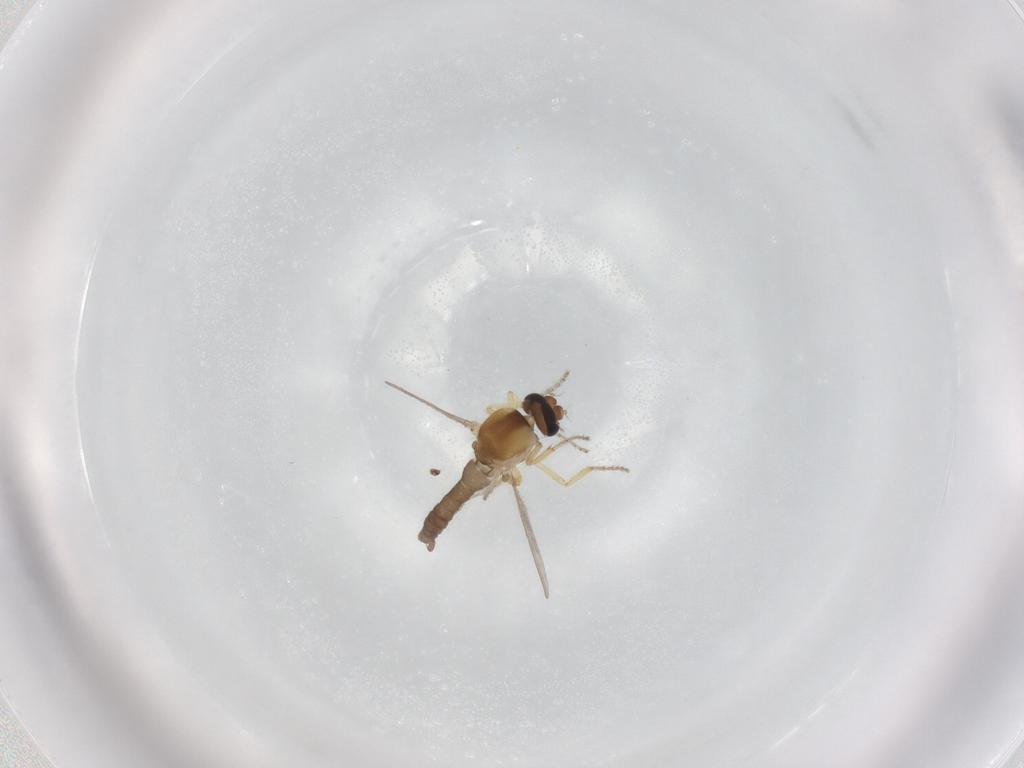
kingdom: Animalia
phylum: Arthropoda
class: Insecta
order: Diptera
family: Ceratopogonidae
